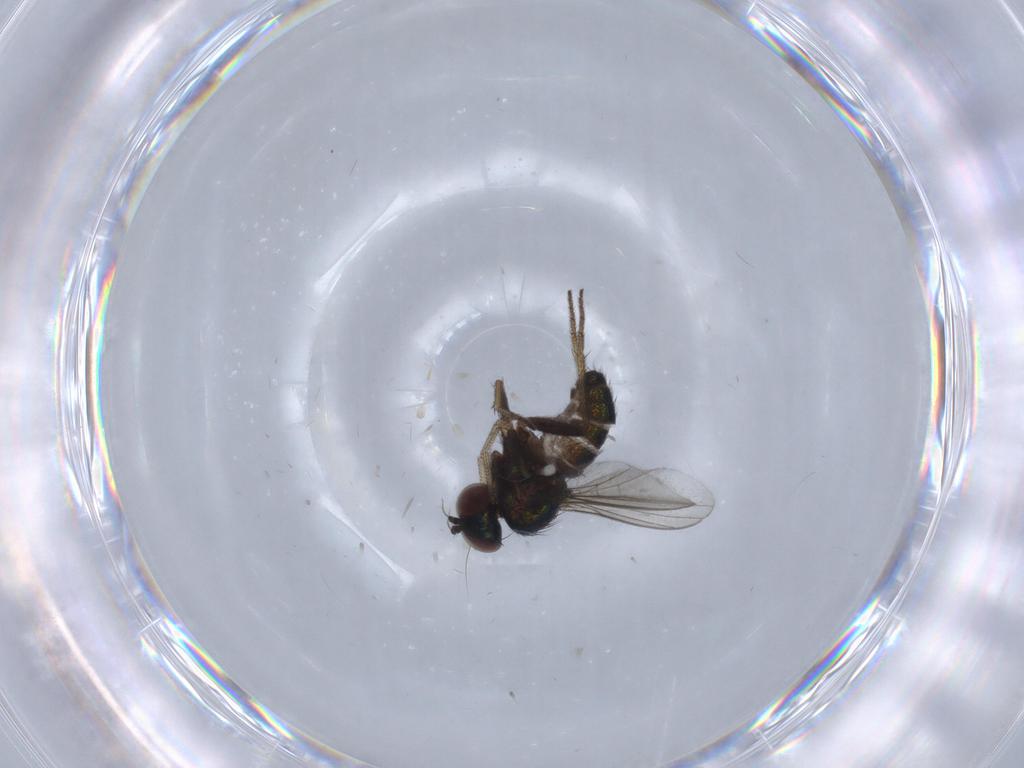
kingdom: Animalia
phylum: Arthropoda
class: Insecta
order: Diptera
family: Dolichopodidae
